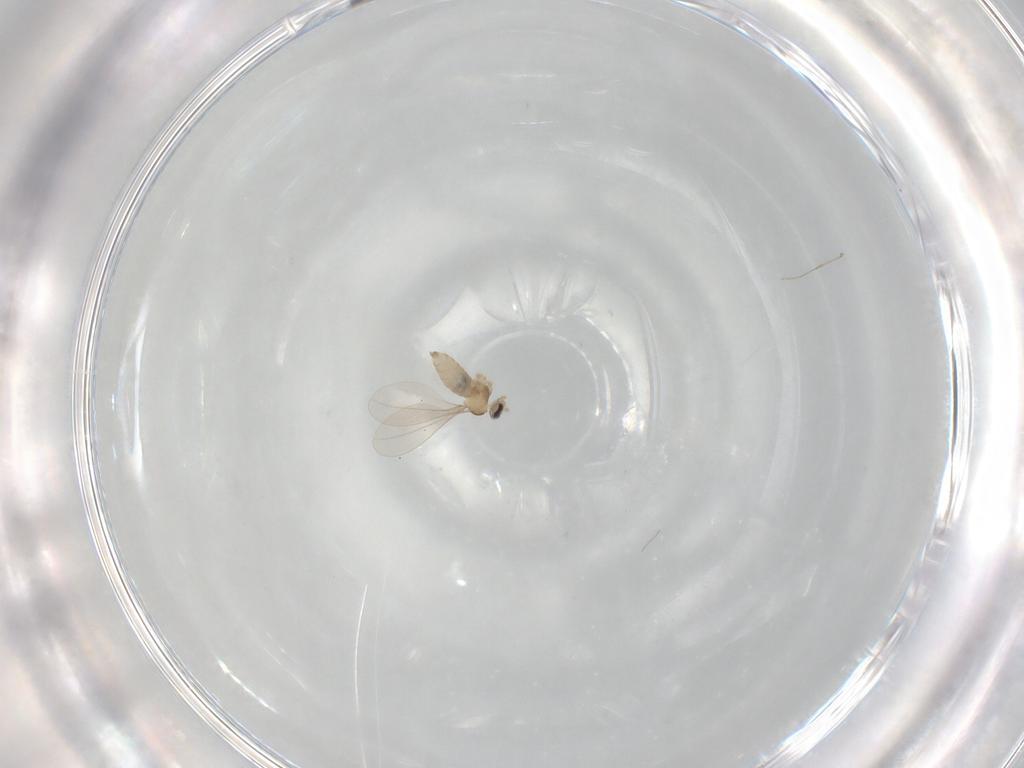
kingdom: Animalia
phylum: Arthropoda
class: Insecta
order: Diptera
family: Cecidomyiidae
